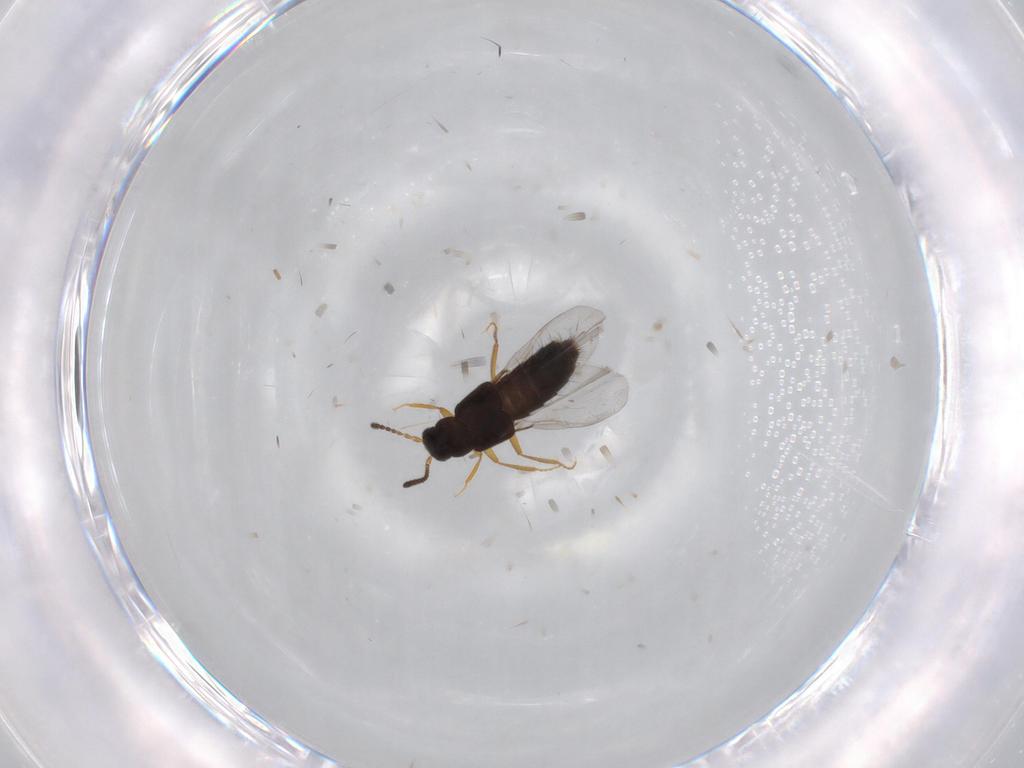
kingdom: Animalia
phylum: Arthropoda
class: Insecta
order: Coleoptera
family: Staphylinidae
